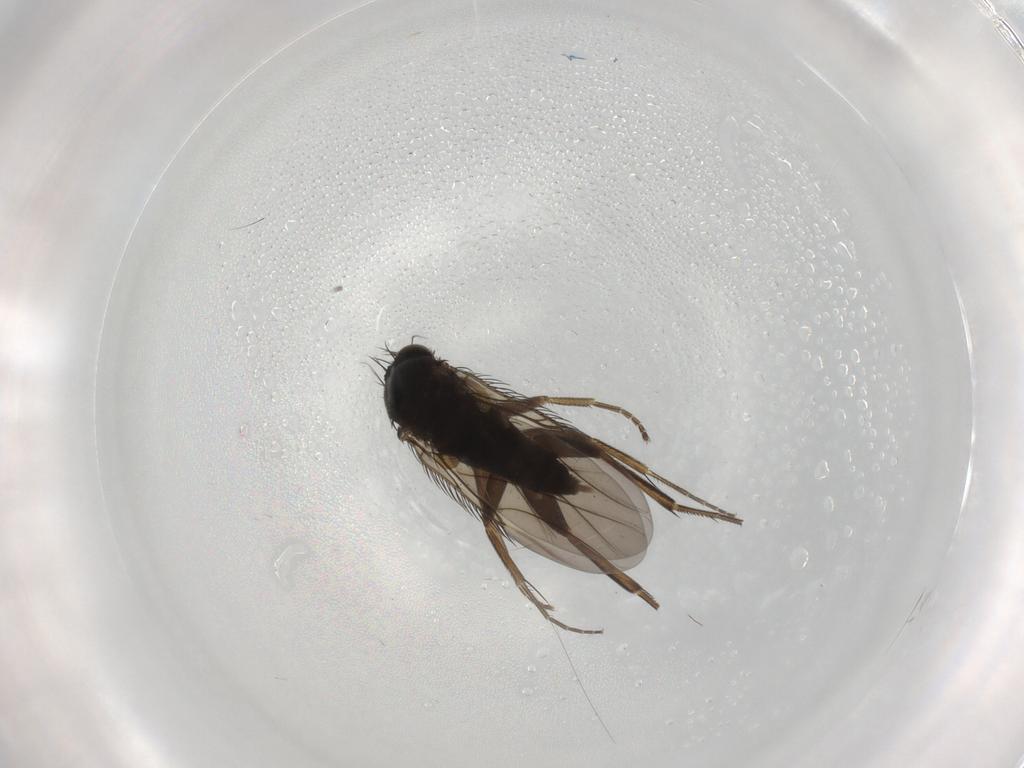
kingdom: Animalia
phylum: Arthropoda
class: Insecta
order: Diptera
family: Phoridae
